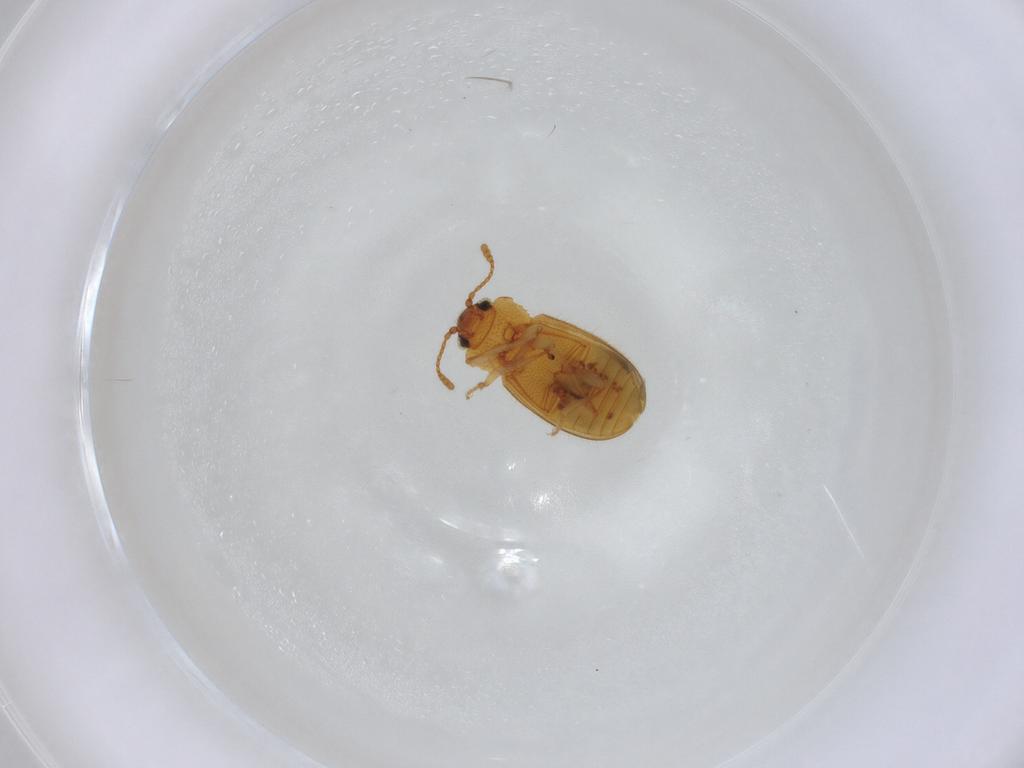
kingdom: Animalia
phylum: Arthropoda
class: Insecta
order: Coleoptera
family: Cryptophagidae
